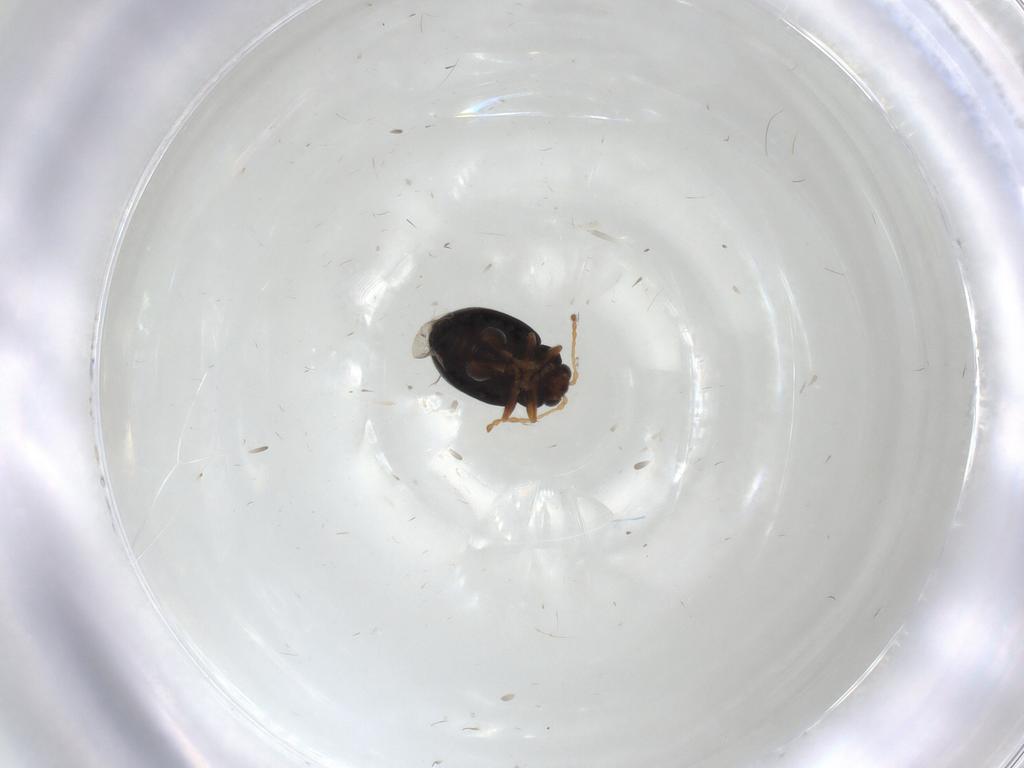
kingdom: Animalia
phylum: Arthropoda
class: Insecta
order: Coleoptera
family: Chrysomelidae
